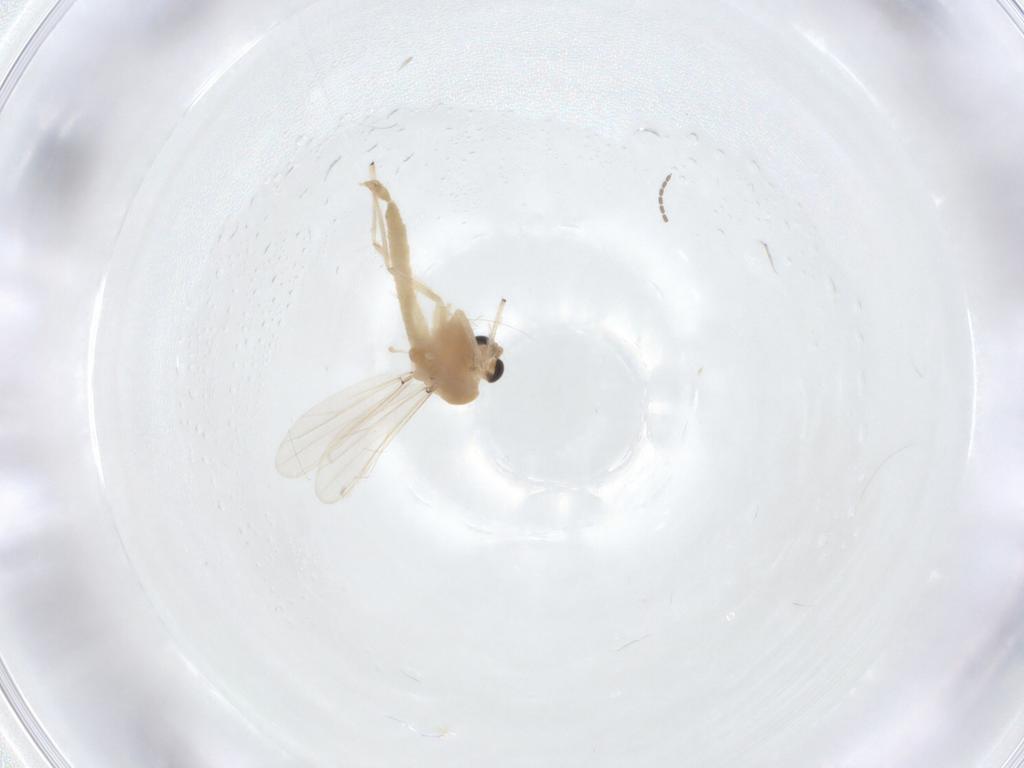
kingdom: Animalia
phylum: Arthropoda
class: Insecta
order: Diptera
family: Chironomidae
